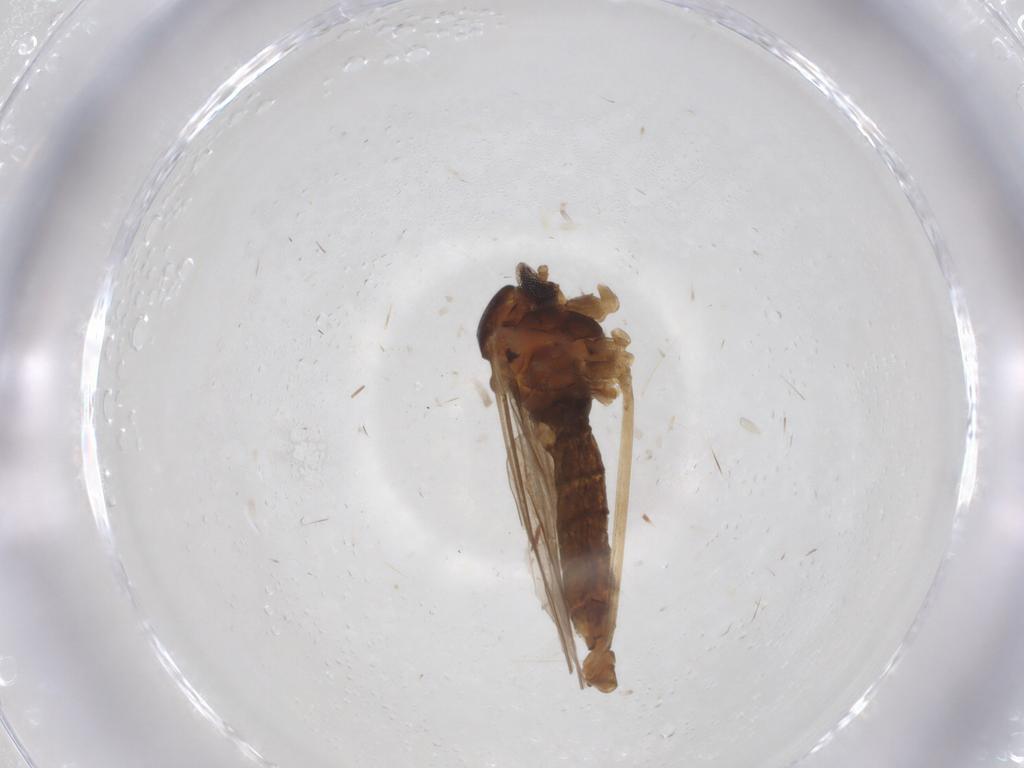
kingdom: Animalia
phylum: Arthropoda
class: Insecta
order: Diptera
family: Cecidomyiidae
